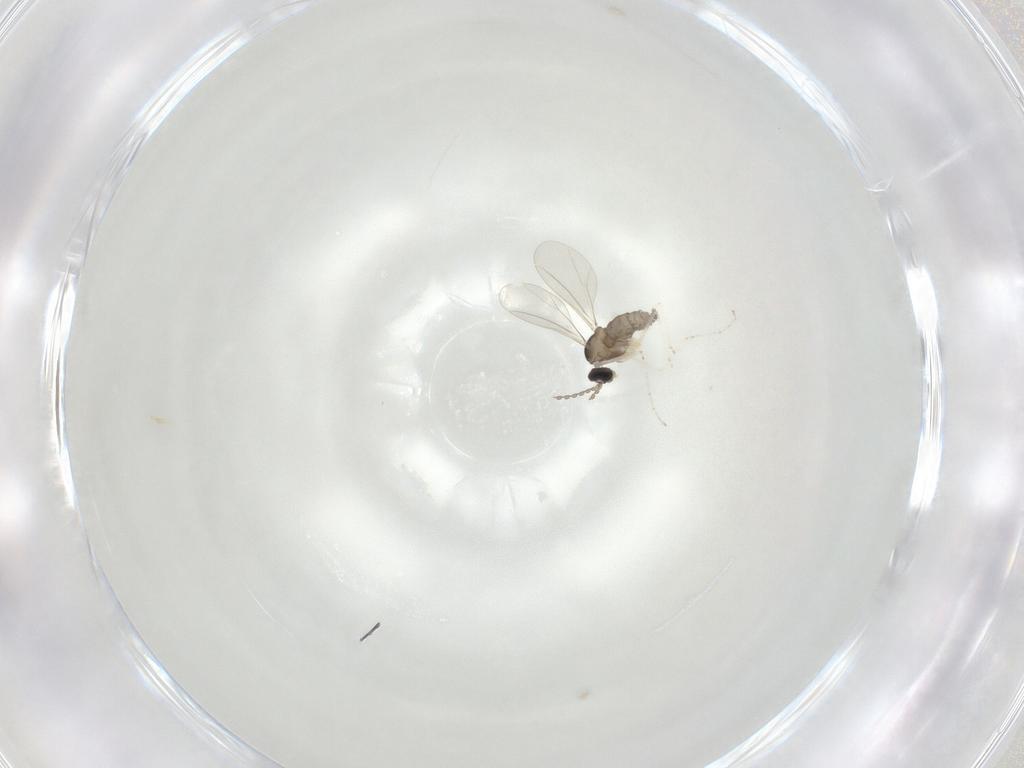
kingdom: Animalia
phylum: Arthropoda
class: Insecta
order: Diptera
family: Cecidomyiidae
